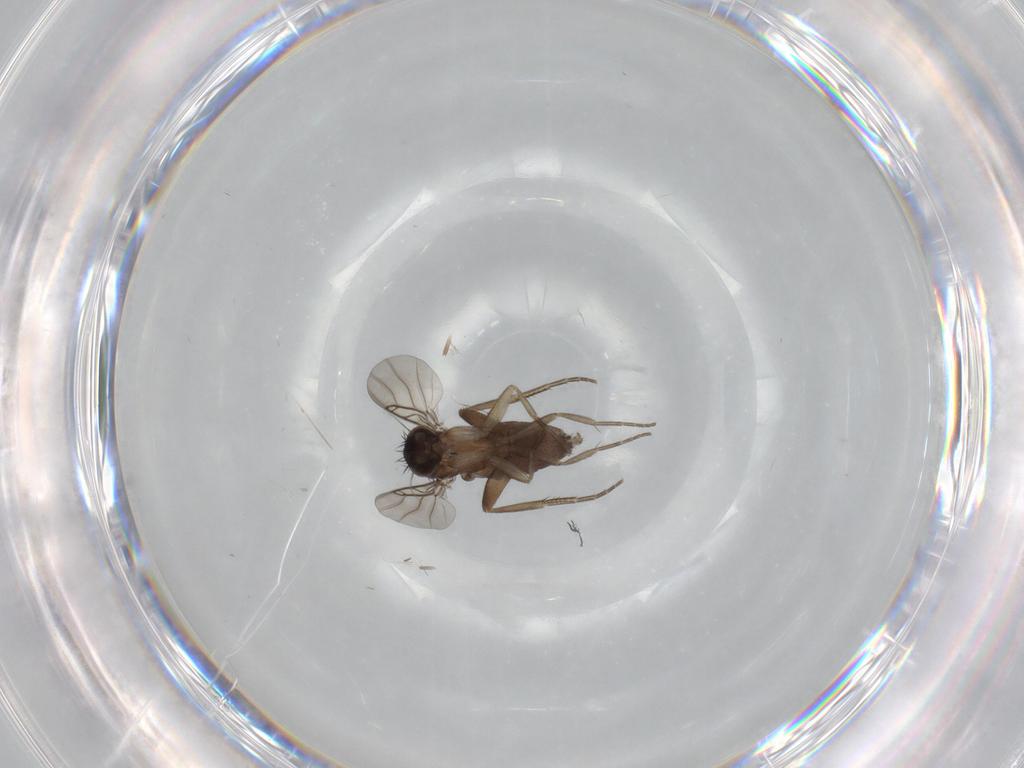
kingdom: Animalia
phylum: Arthropoda
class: Insecta
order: Diptera
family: Phoridae
